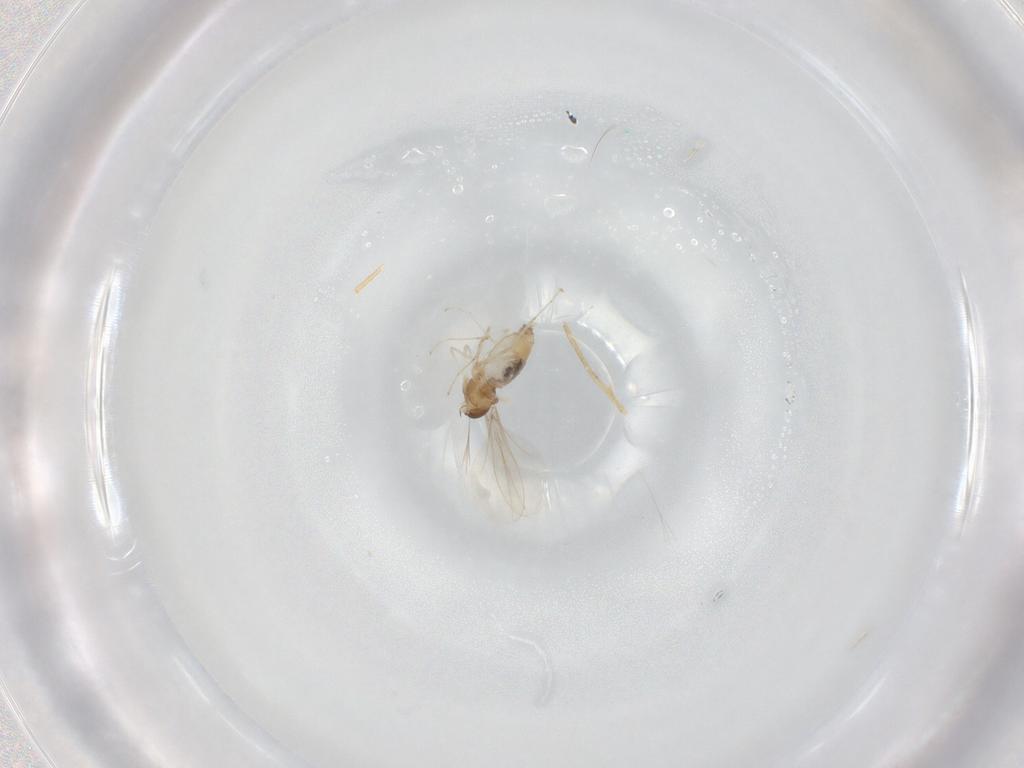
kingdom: Animalia
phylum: Arthropoda
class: Insecta
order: Diptera
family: Cecidomyiidae
